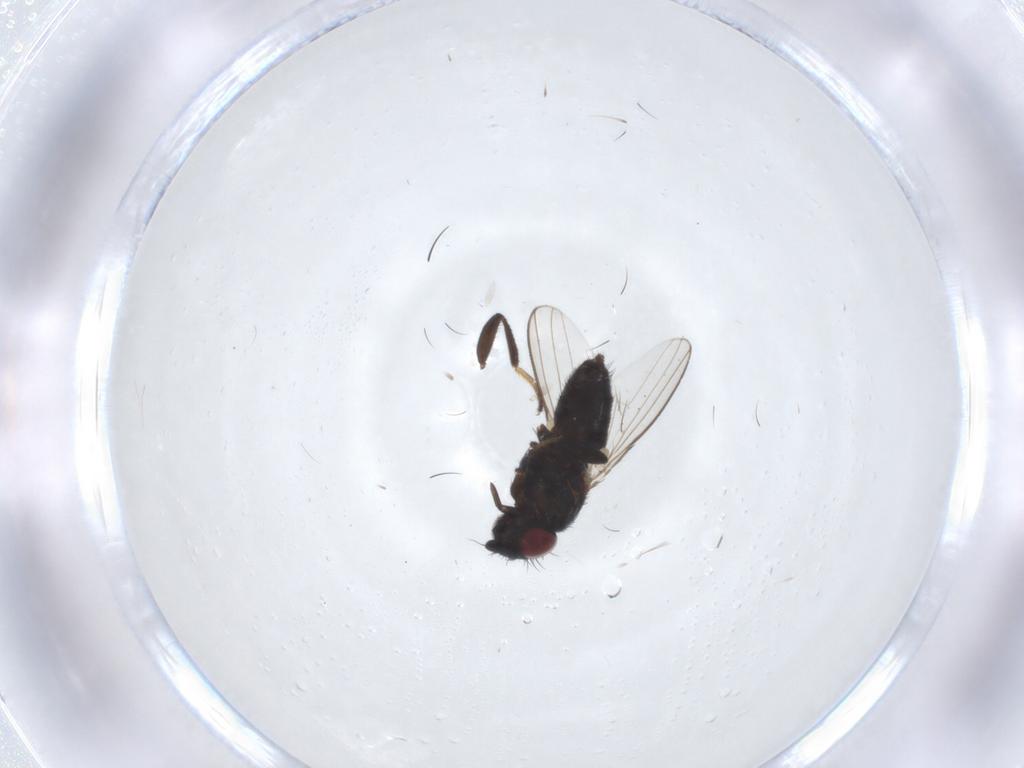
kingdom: Animalia
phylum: Arthropoda
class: Insecta
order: Diptera
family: Milichiidae
